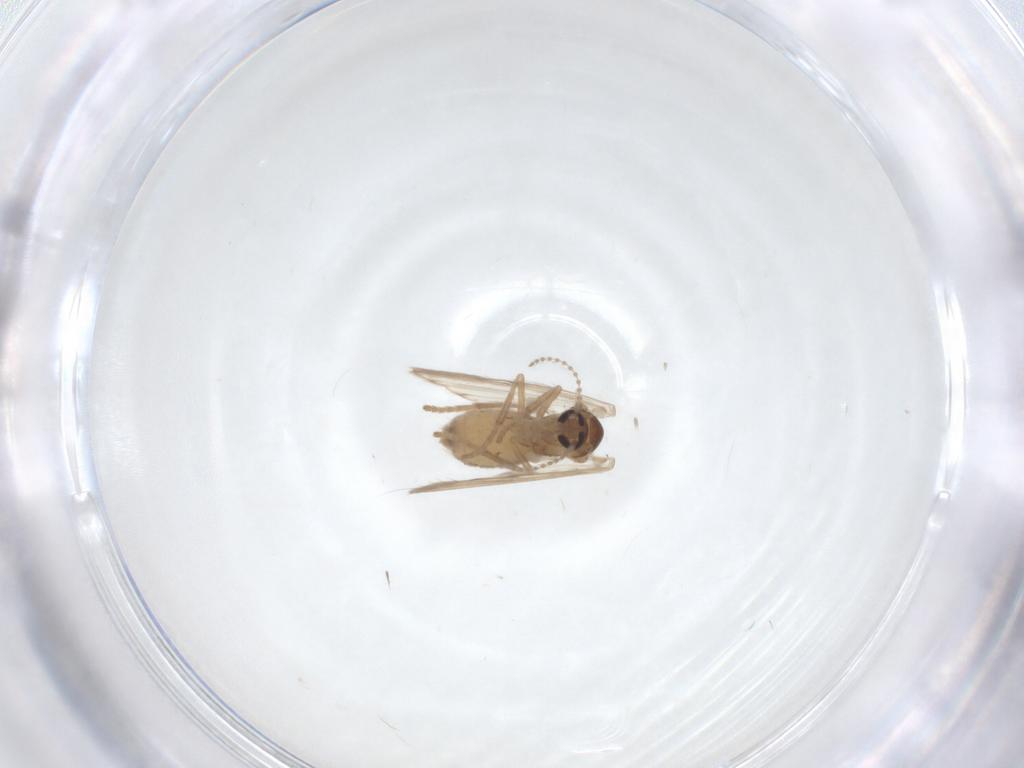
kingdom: Animalia
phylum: Arthropoda
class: Insecta
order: Diptera
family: Psychodidae
